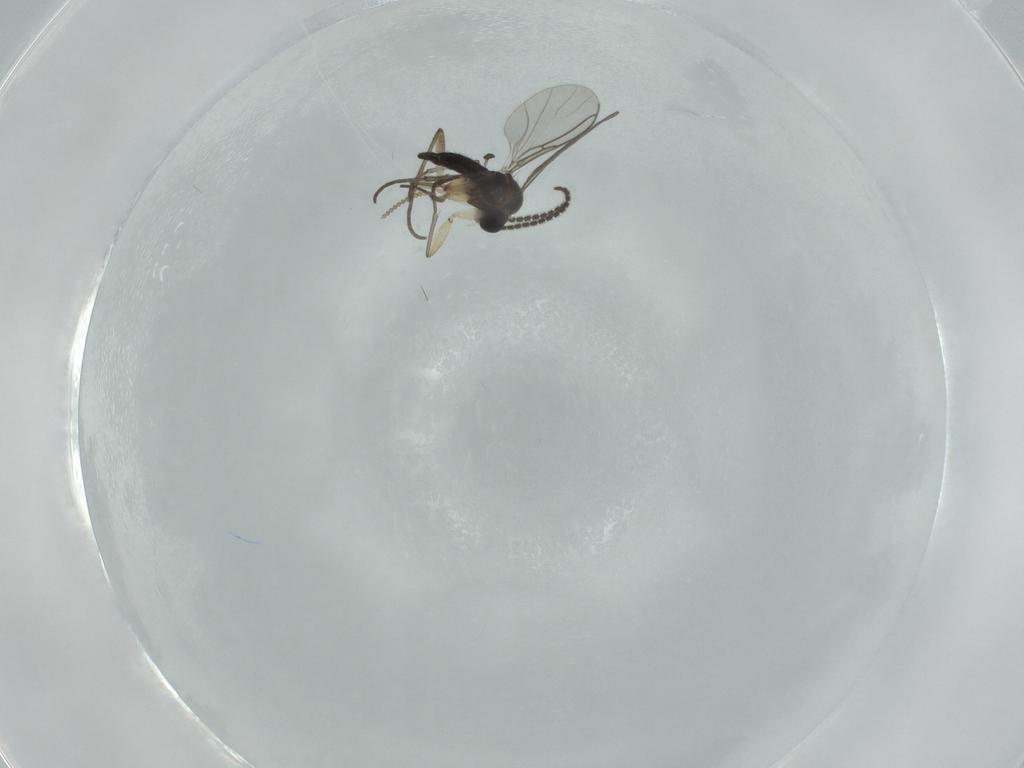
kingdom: Animalia
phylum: Arthropoda
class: Insecta
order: Diptera
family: Sciaridae
